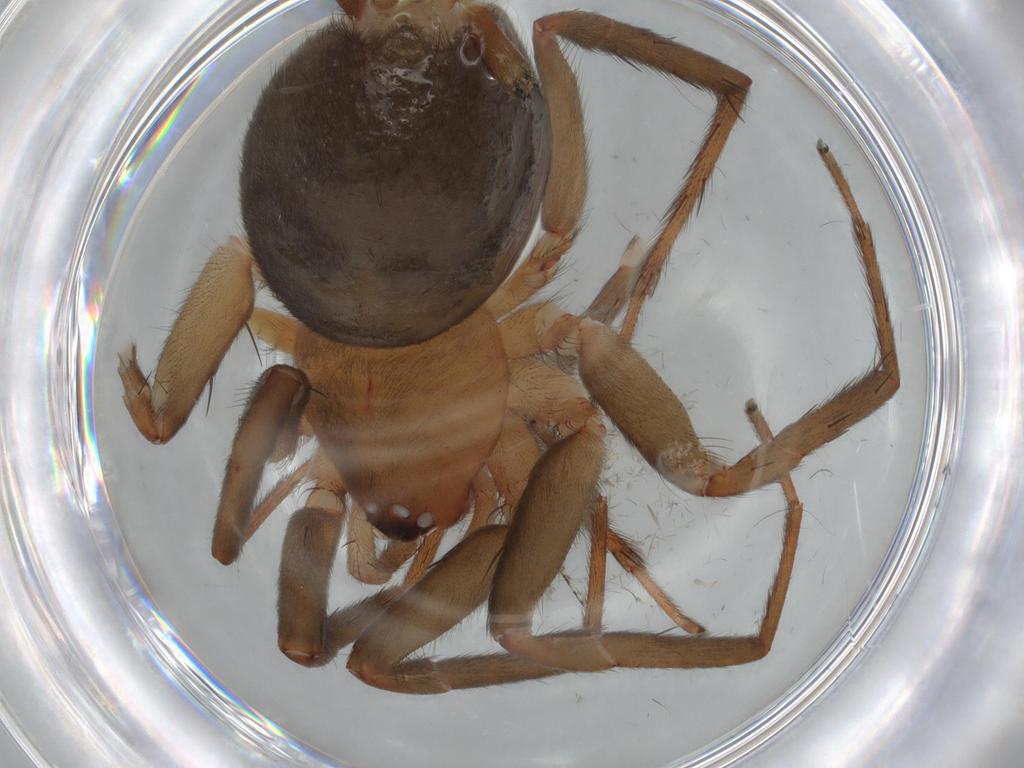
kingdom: Animalia
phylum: Arthropoda
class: Arachnida
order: Araneae
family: Gnaphosidae
